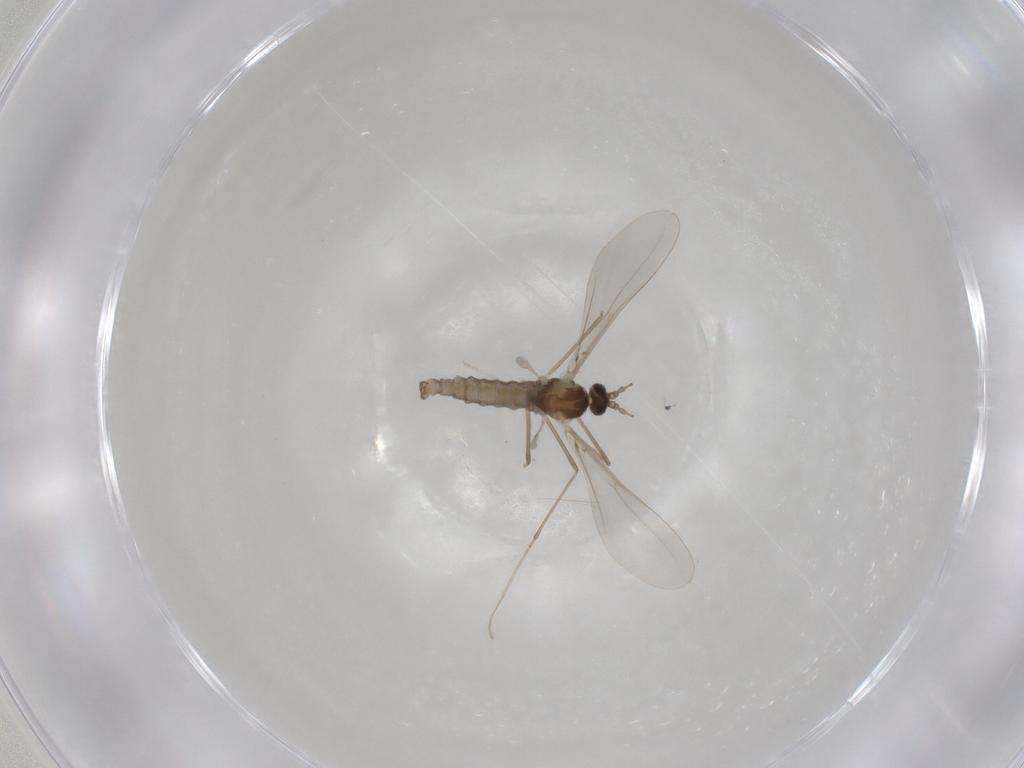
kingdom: Animalia
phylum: Arthropoda
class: Insecta
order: Diptera
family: Cecidomyiidae
